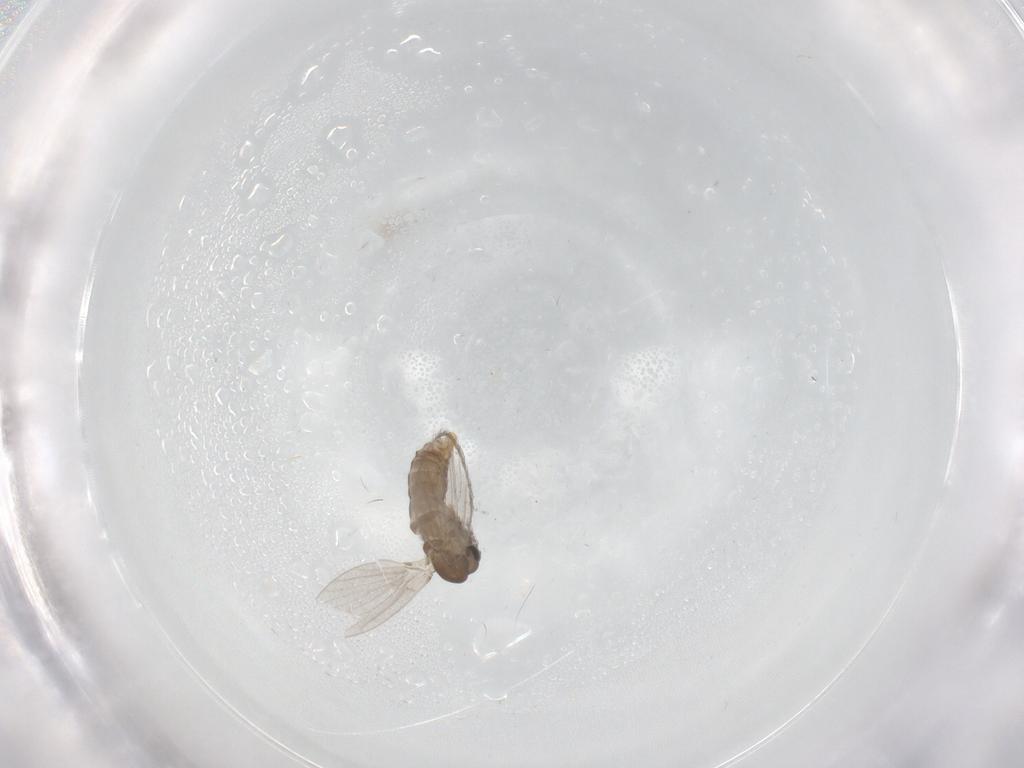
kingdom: Animalia
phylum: Arthropoda
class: Insecta
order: Diptera
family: Cecidomyiidae
